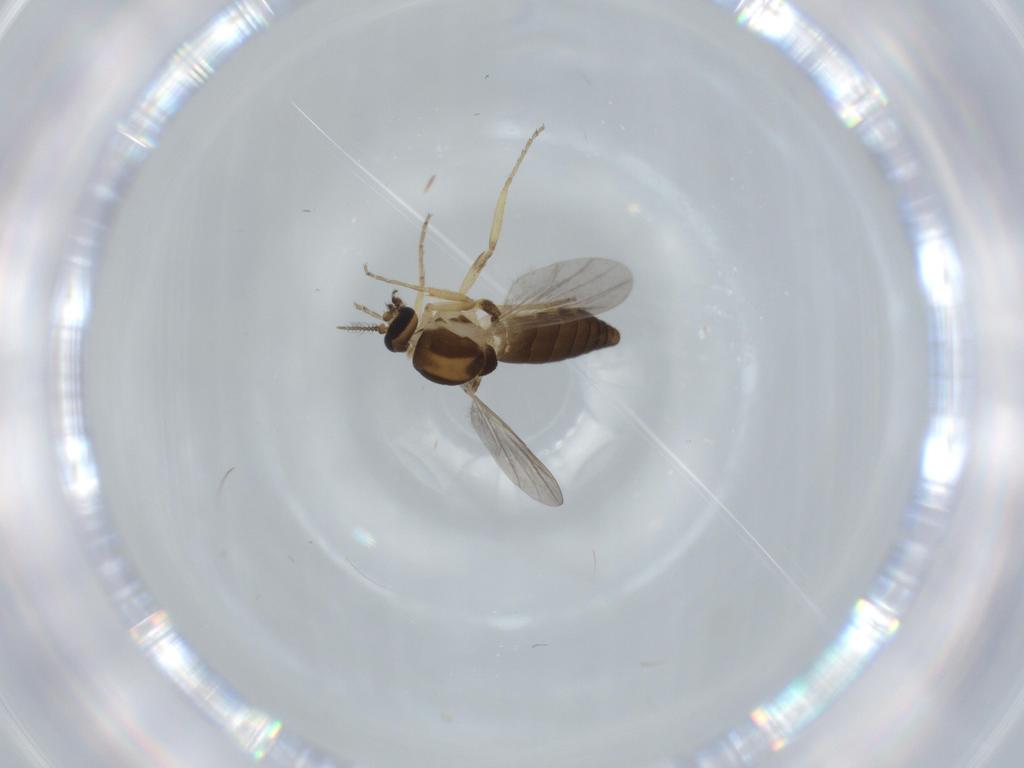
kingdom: Animalia
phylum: Arthropoda
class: Insecta
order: Diptera
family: Ceratopogonidae
